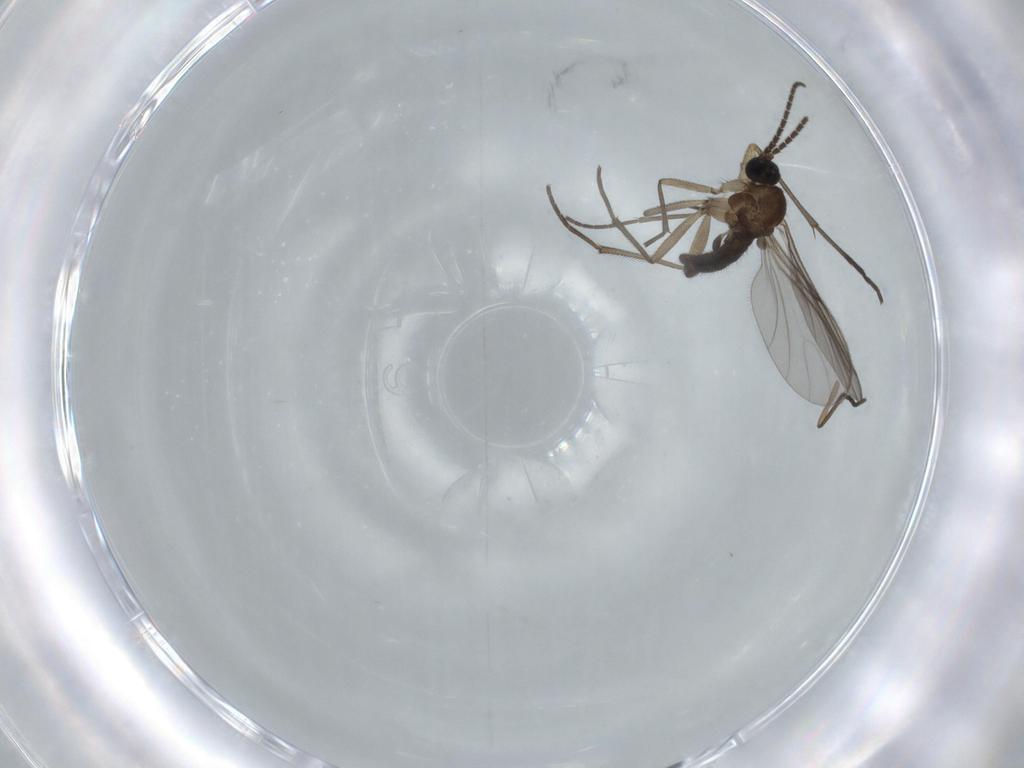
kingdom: Animalia
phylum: Arthropoda
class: Insecta
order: Diptera
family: Sciaridae
